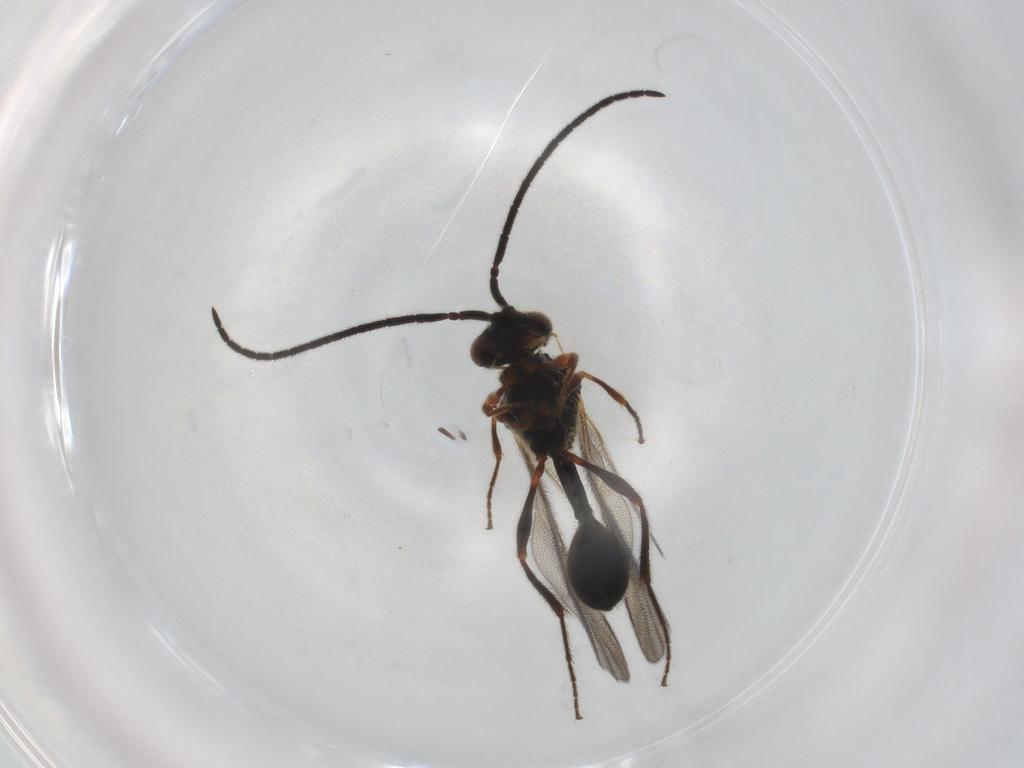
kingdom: Animalia
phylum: Arthropoda
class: Insecta
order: Hymenoptera
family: Diapriidae
